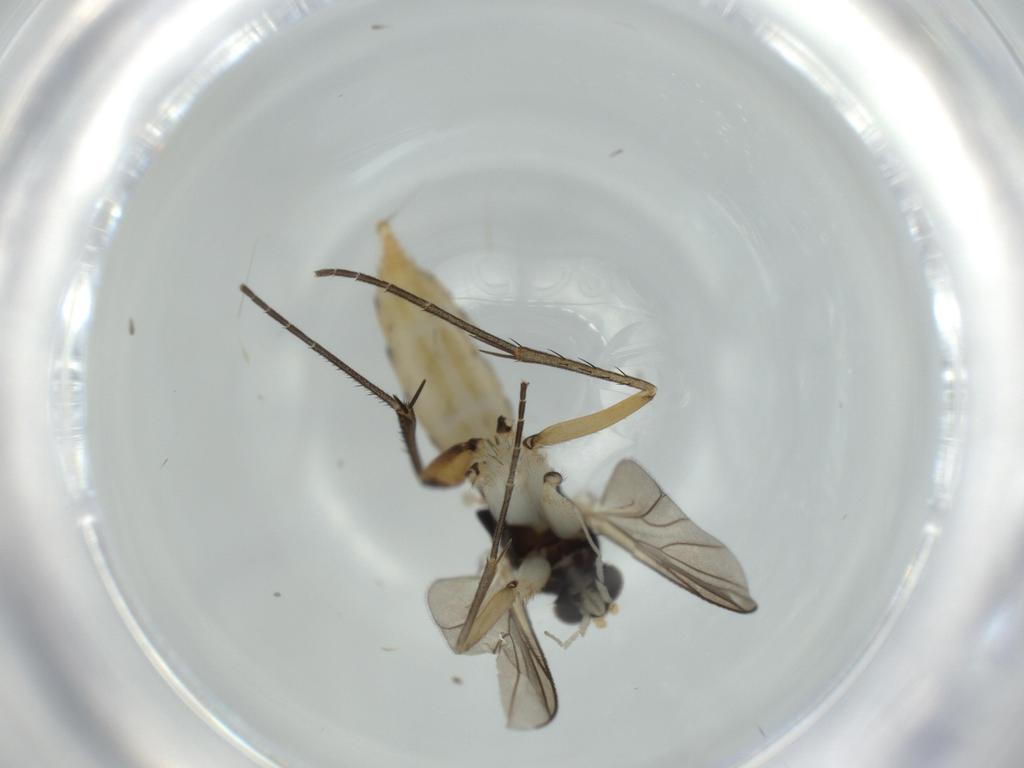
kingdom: Animalia
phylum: Arthropoda
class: Insecta
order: Diptera
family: Mycetophilidae
